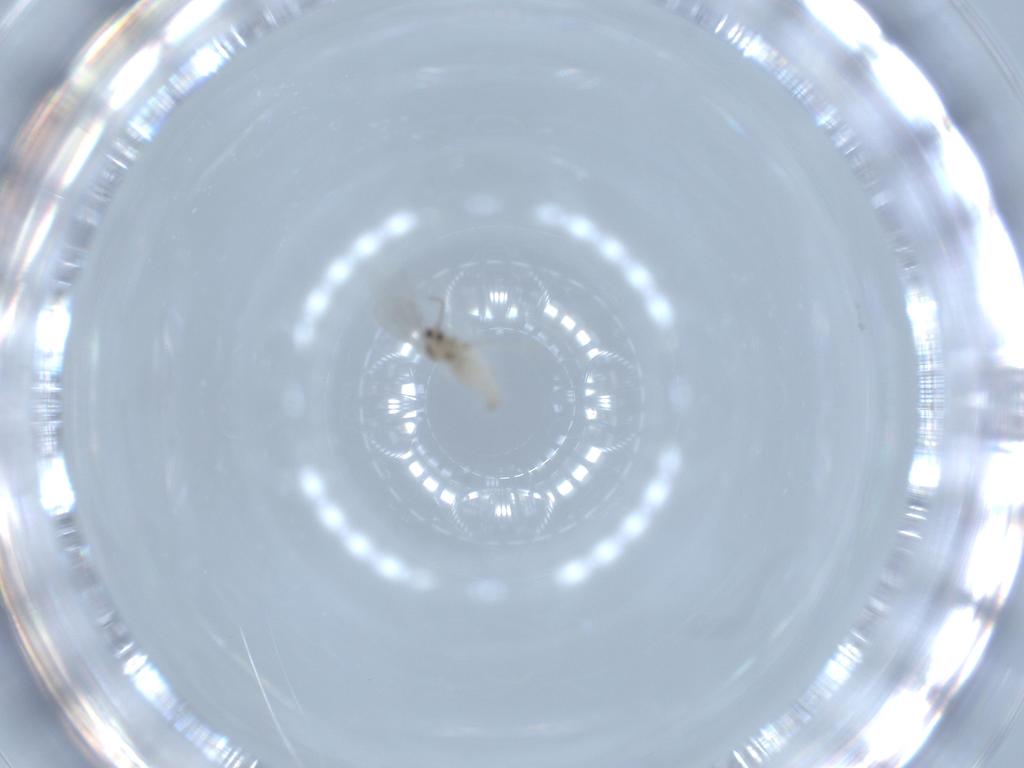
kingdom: Animalia
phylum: Arthropoda
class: Insecta
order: Diptera
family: Cecidomyiidae
